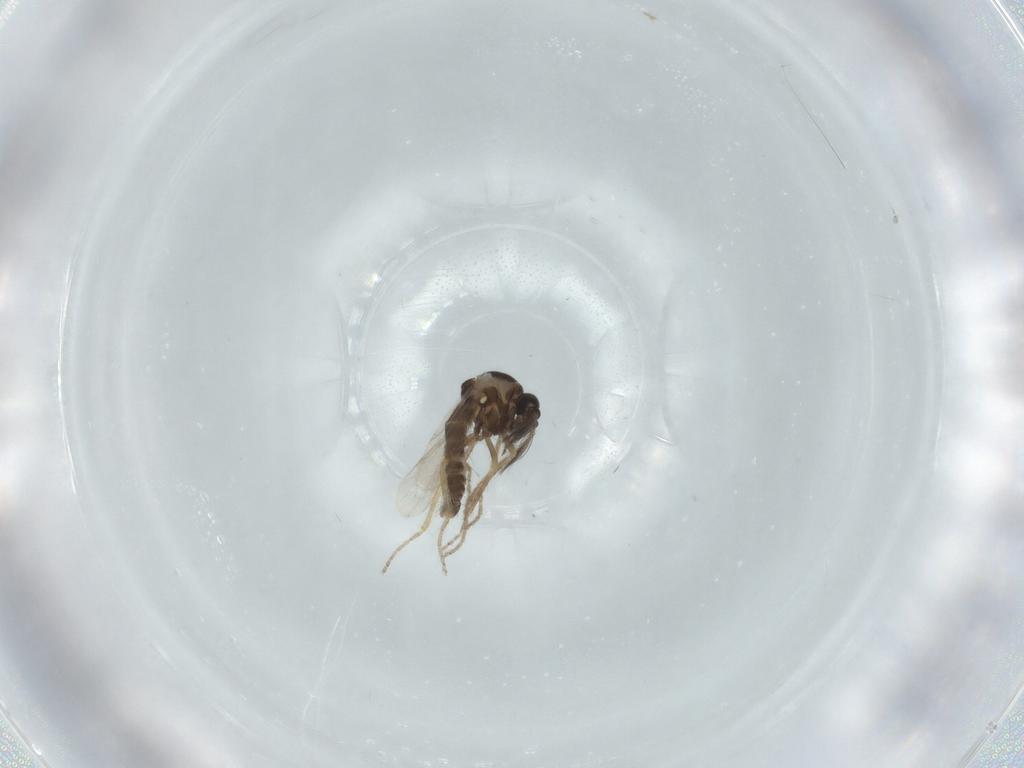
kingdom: Animalia
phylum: Arthropoda
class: Insecta
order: Diptera
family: Ceratopogonidae
